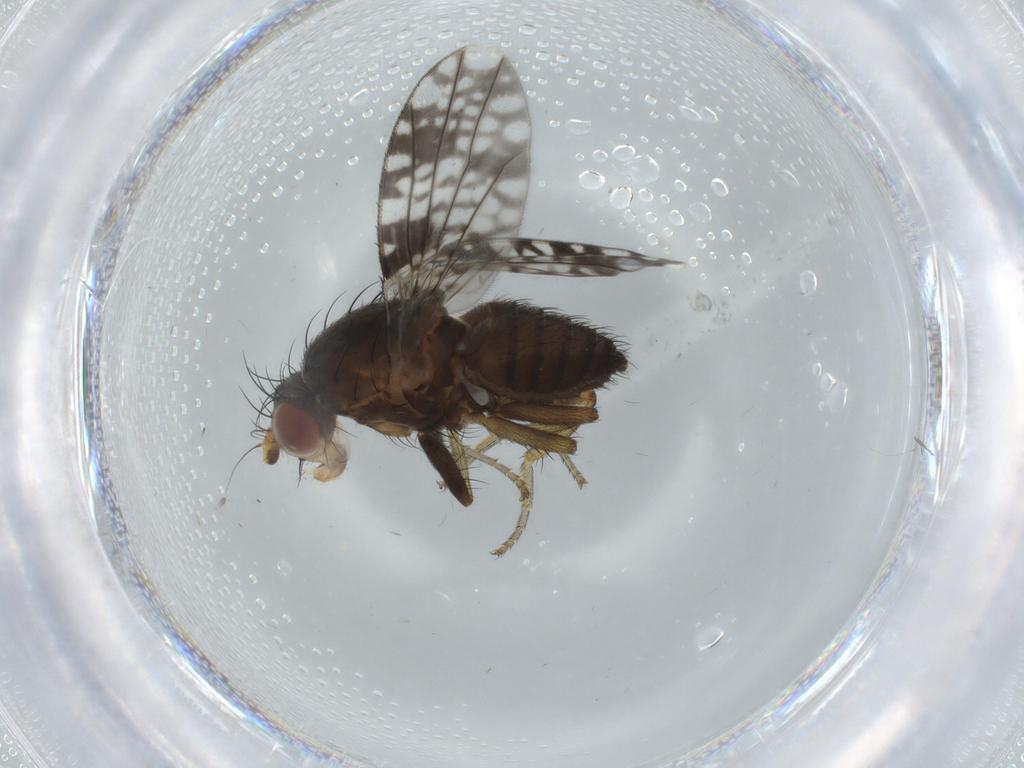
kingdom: Animalia
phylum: Arthropoda
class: Insecta
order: Diptera
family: Tephritidae
